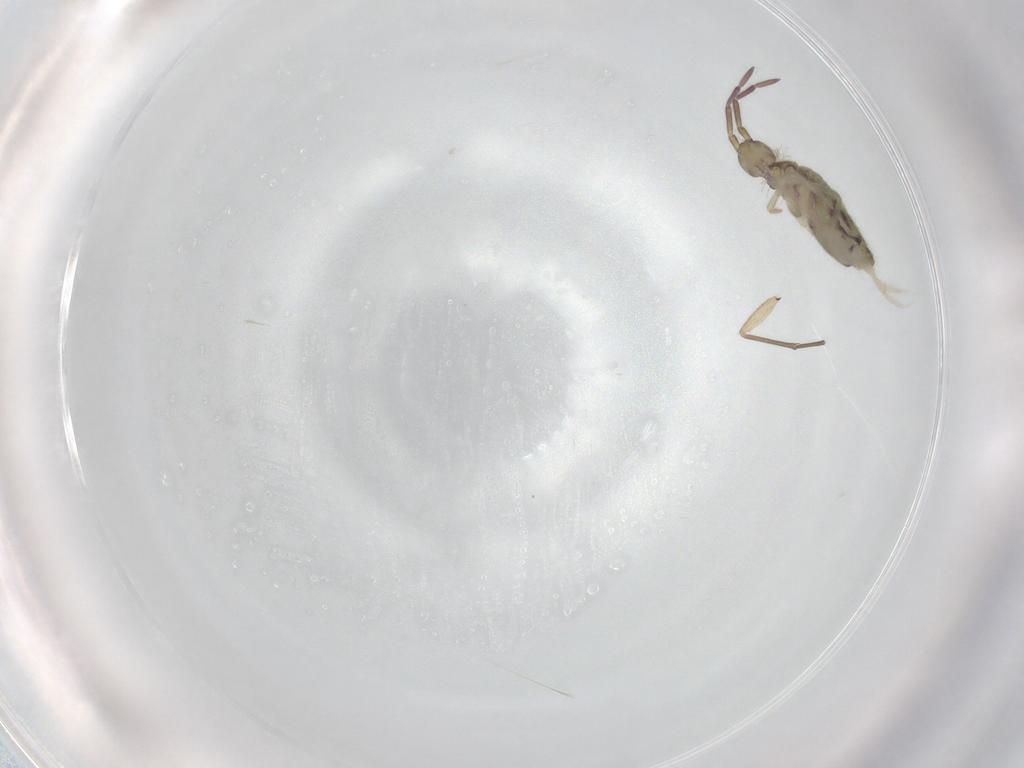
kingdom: Animalia
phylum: Arthropoda
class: Collembola
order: Entomobryomorpha
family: Entomobryidae
